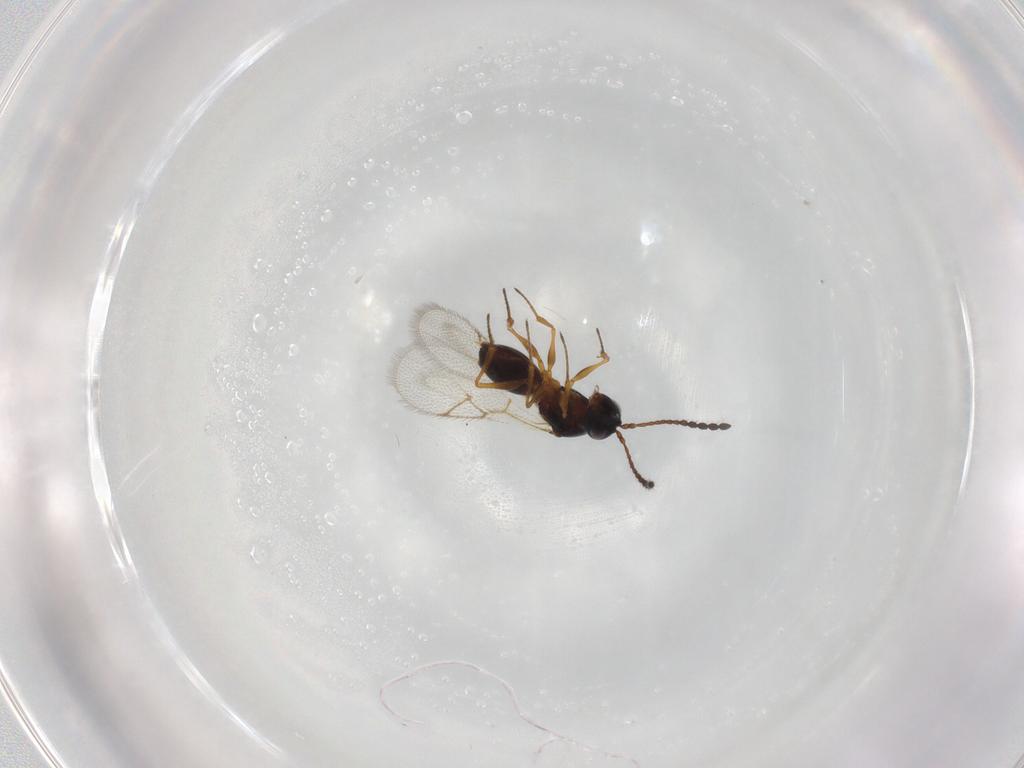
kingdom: Animalia
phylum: Arthropoda
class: Insecta
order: Hymenoptera
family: Figitidae
